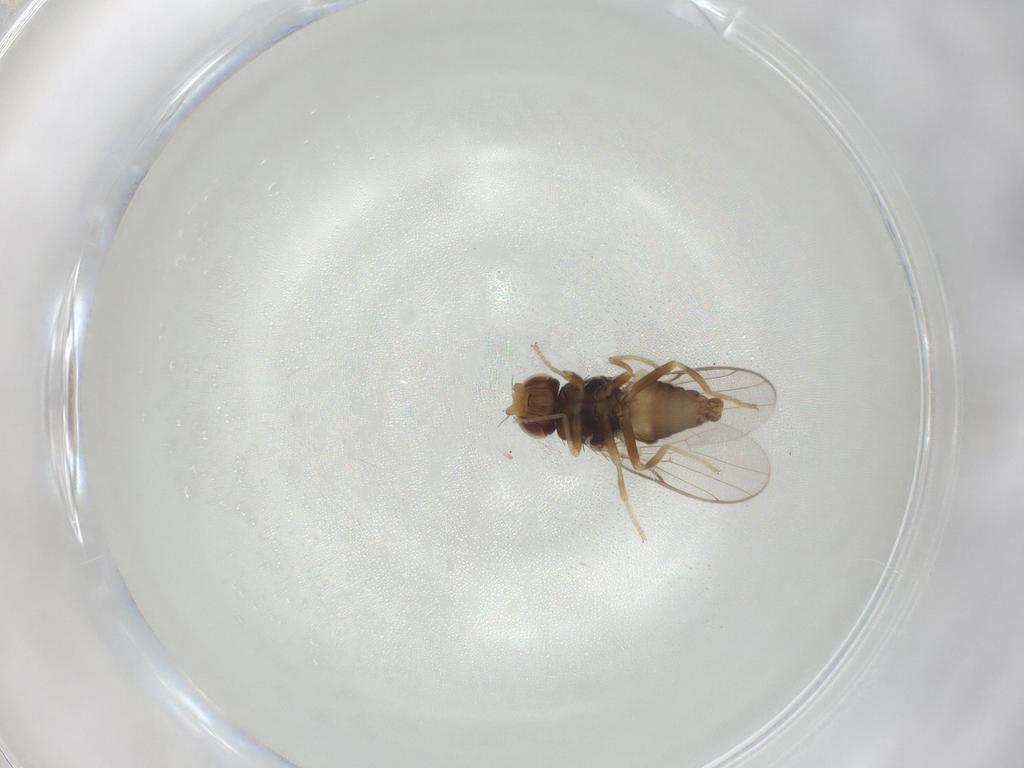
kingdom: Animalia
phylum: Arthropoda
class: Insecta
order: Diptera
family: Chloropidae
